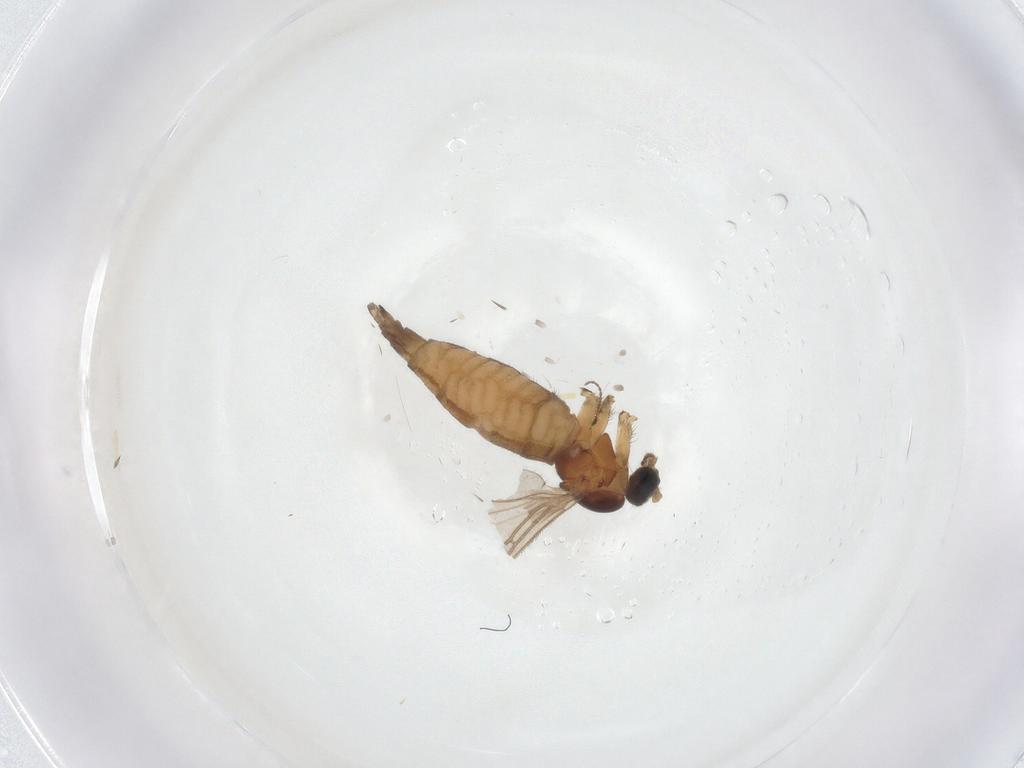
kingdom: Animalia
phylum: Arthropoda
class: Insecta
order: Diptera
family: Sciaridae
